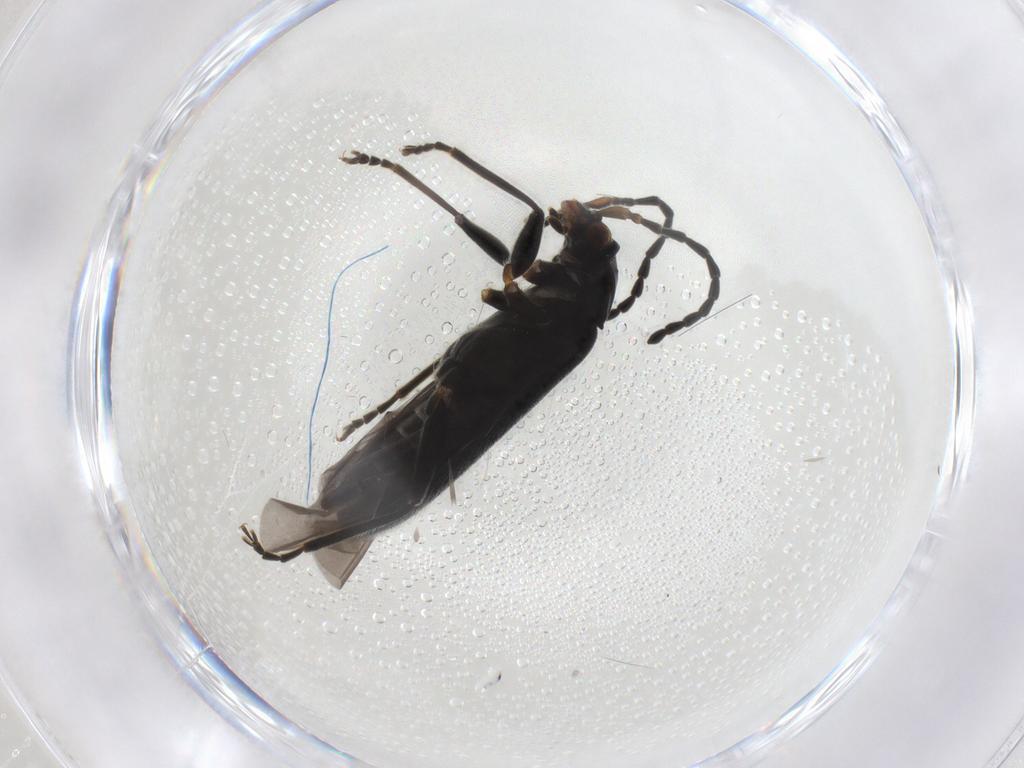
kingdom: Animalia
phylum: Arthropoda
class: Insecta
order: Coleoptera
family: Cantharidae
